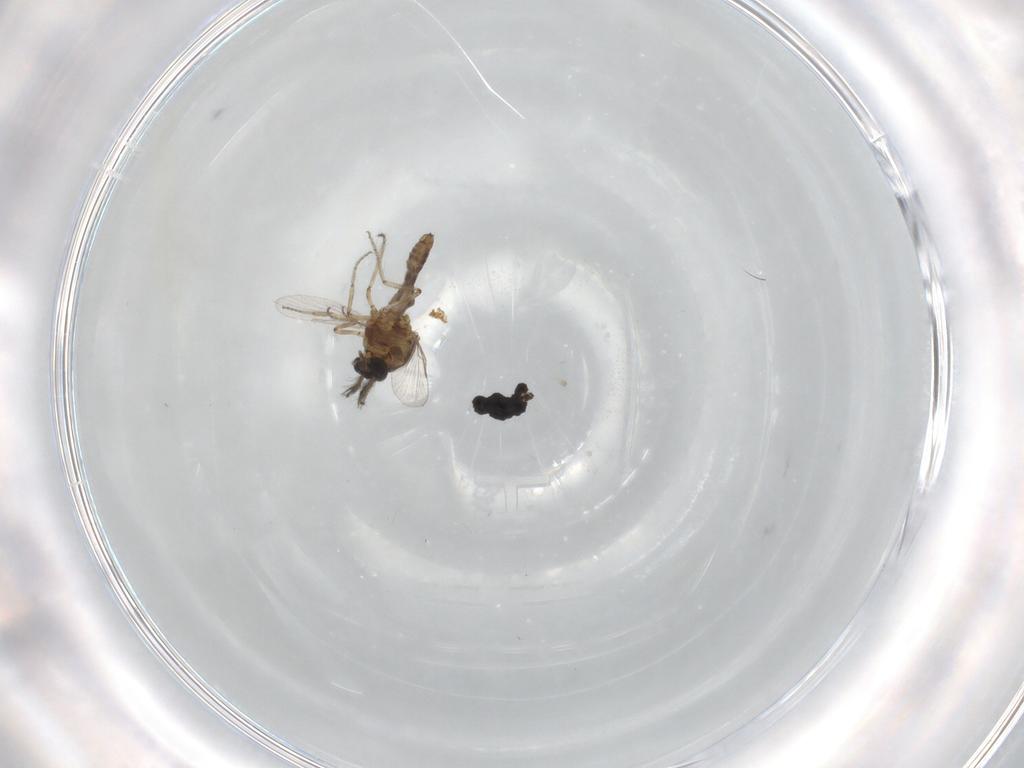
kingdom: Animalia
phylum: Arthropoda
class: Insecta
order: Diptera
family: Ceratopogonidae
